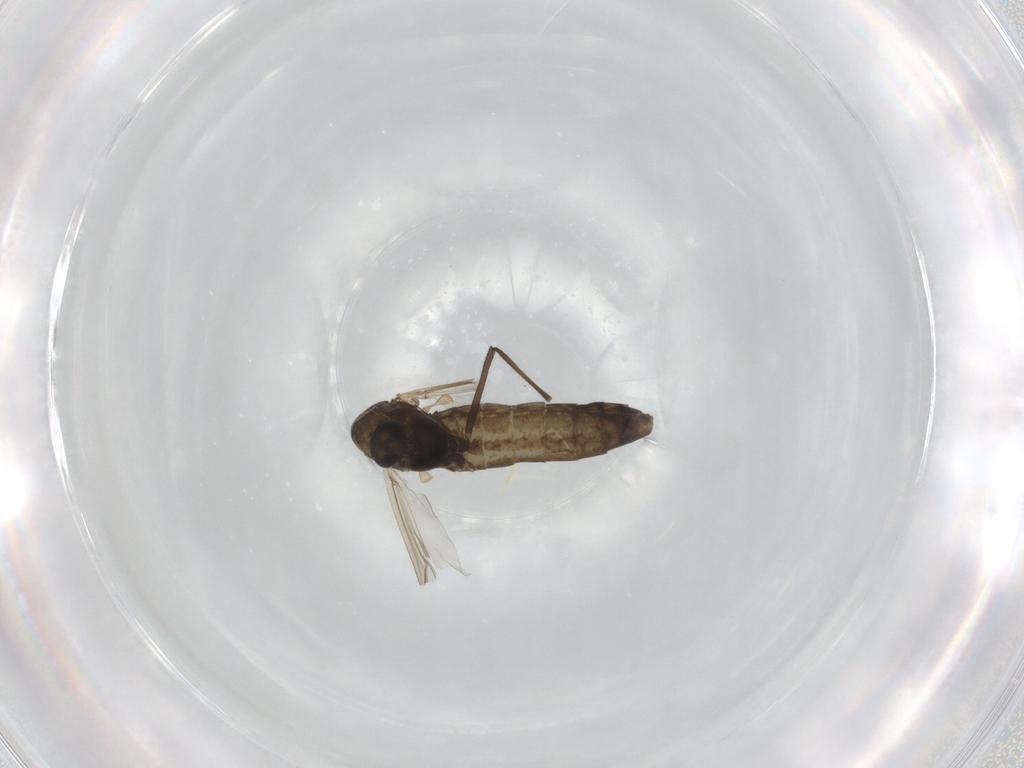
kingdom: Animalia
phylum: Arthropoda
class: Insecta
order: Diptera
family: Chironomidae
